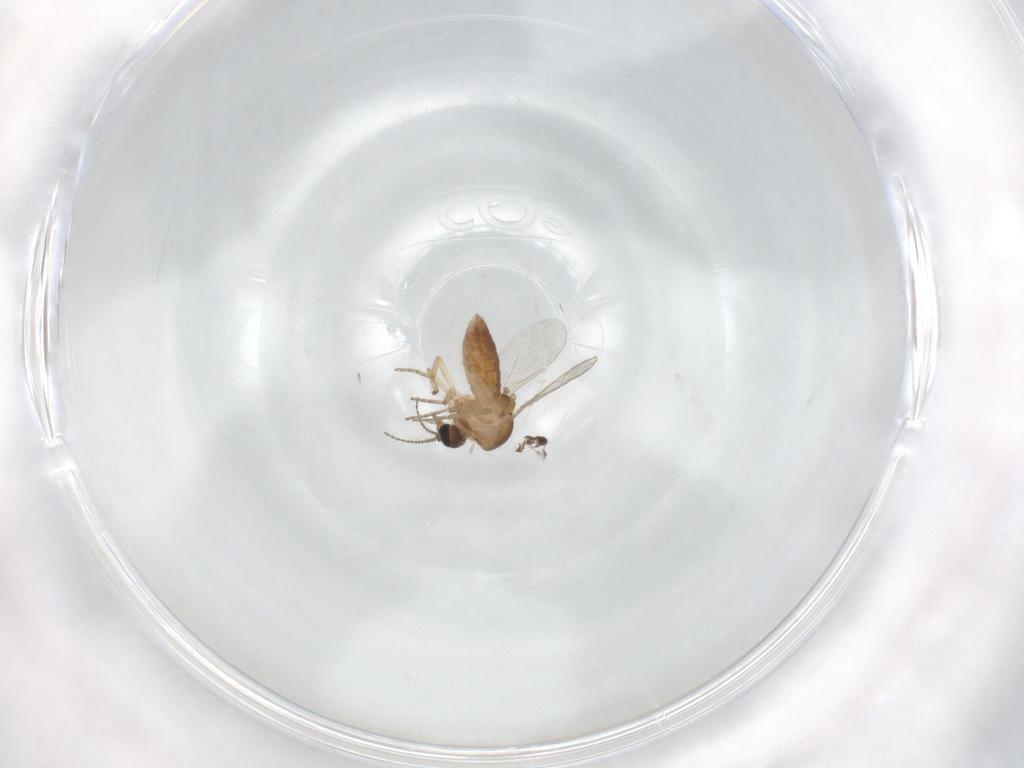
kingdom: Animalia
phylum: Arthropoda
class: Insecta
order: Diptera
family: Ceratopogonidae
